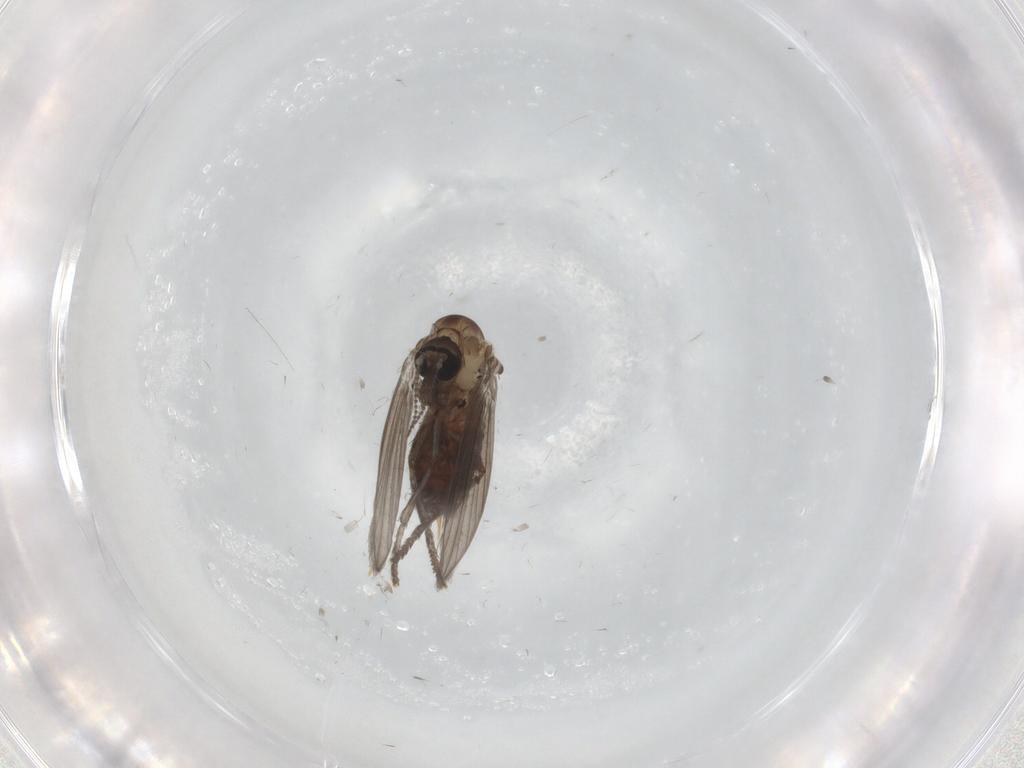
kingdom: Animalia
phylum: Arthropoda
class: Insecta
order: Diptera
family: Psychodidae
